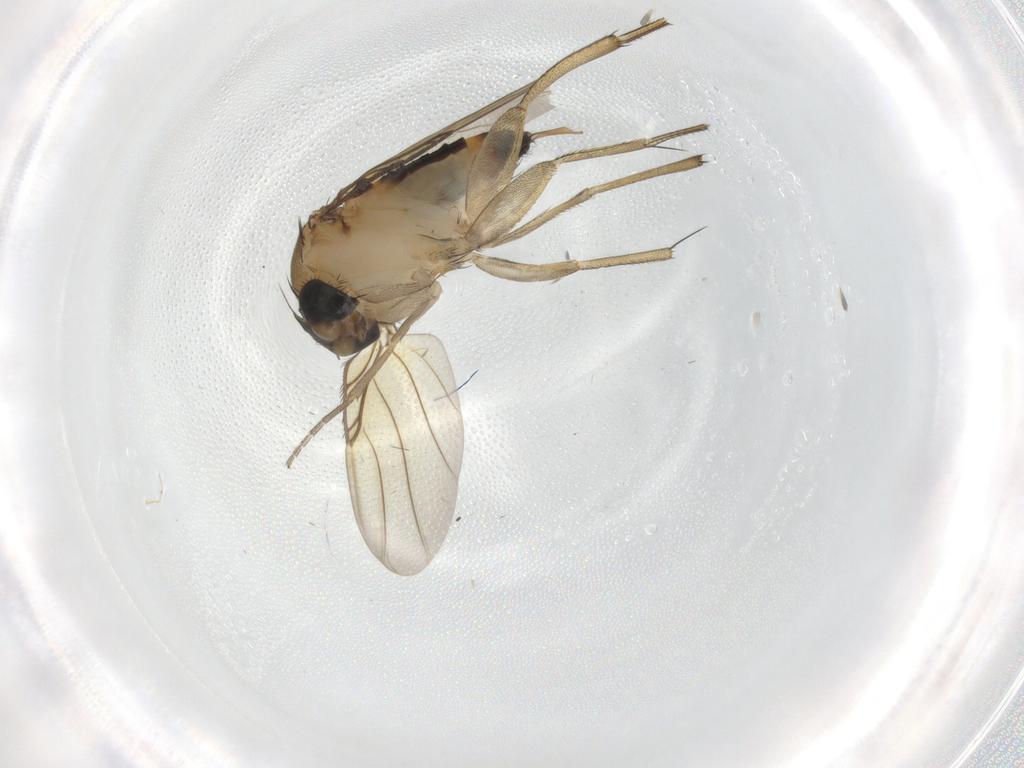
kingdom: Animalia
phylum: Arthropoda
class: Insecta
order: Diptera
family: Phoridae
